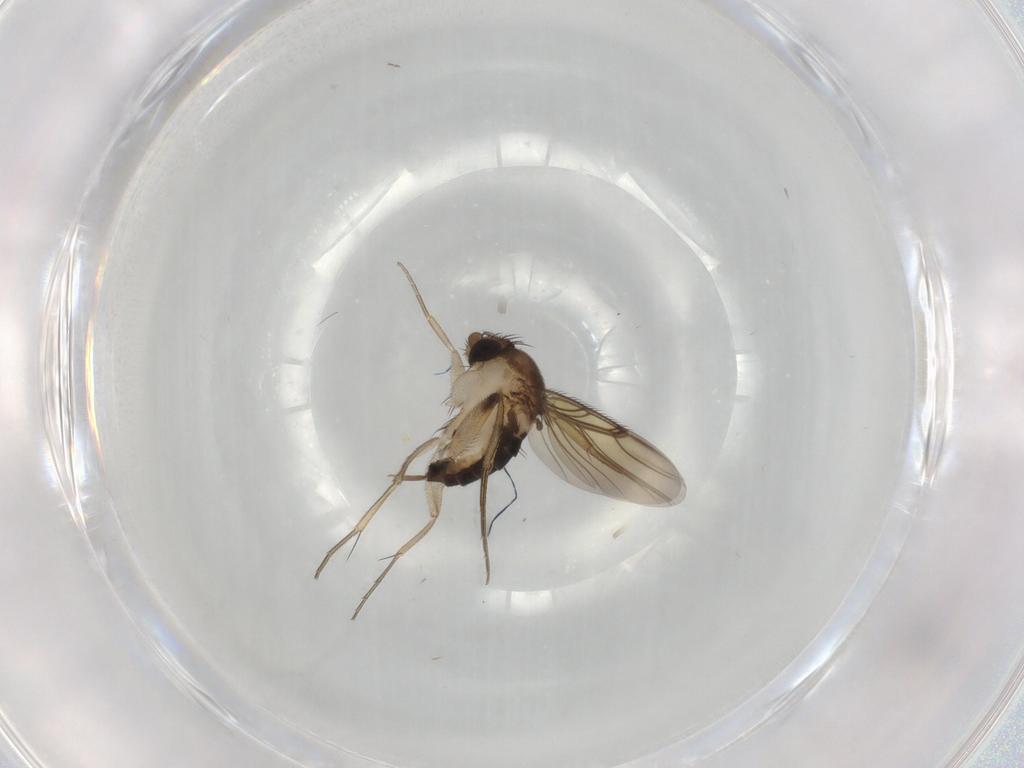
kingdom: Animalia
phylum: Arthropoda
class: Insecta
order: Diptera
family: Phoridae
